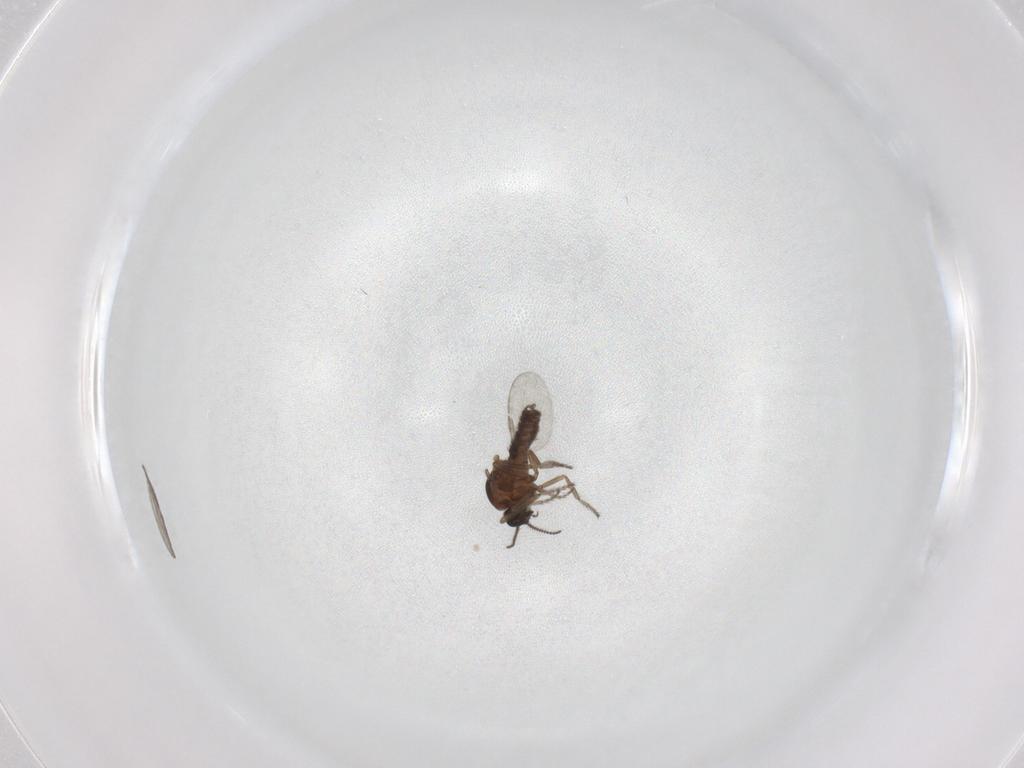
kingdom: Animalia
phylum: Arthropoda
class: Insecta
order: Diptera
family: Ceratopogonidae
